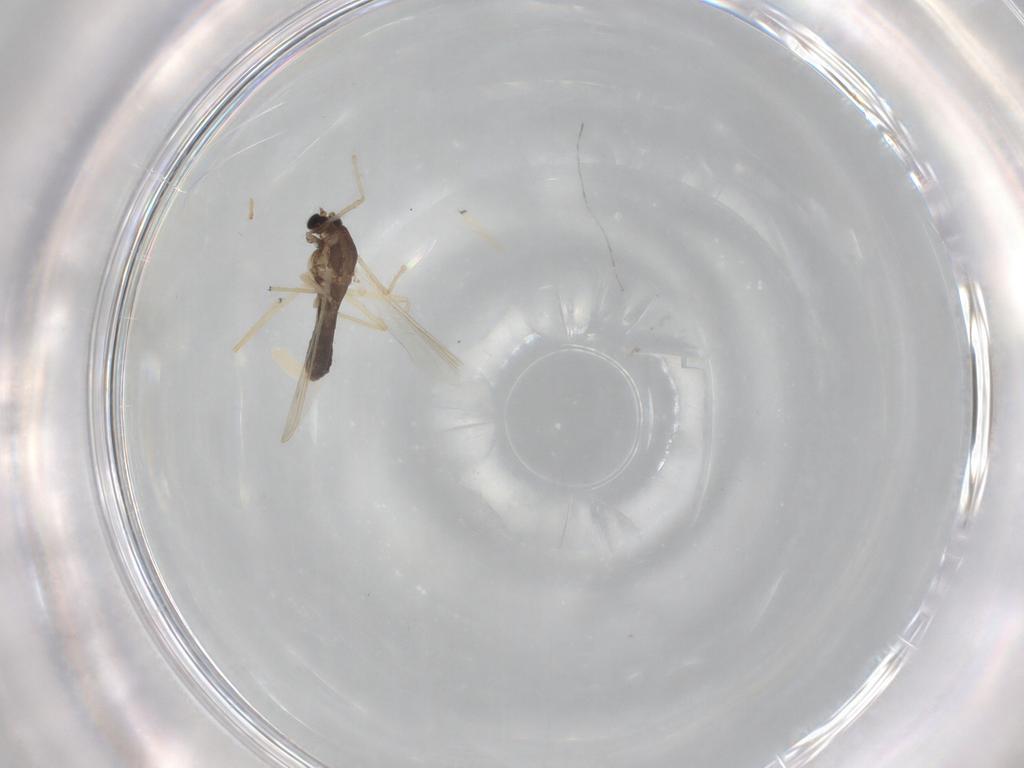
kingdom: Animalia
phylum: Arthropoda
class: Insecta
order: Diptera
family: Chironomidae
